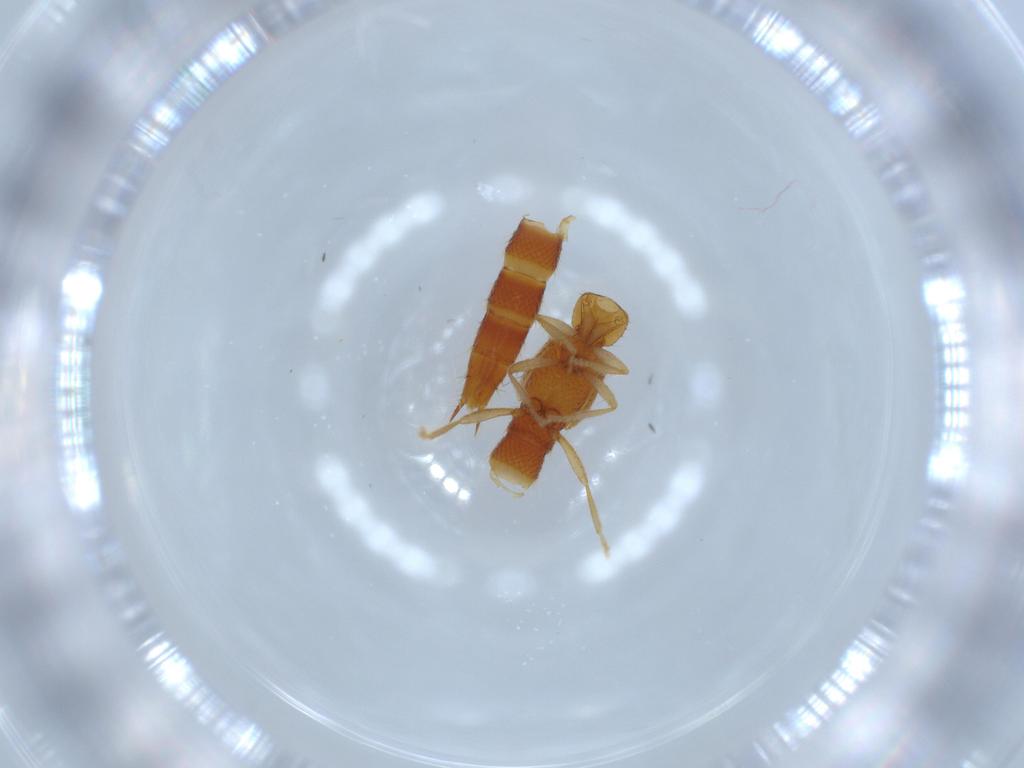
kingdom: Animalia
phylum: Arthropoda
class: Insecta
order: Coleoptera
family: Staphylinidae
